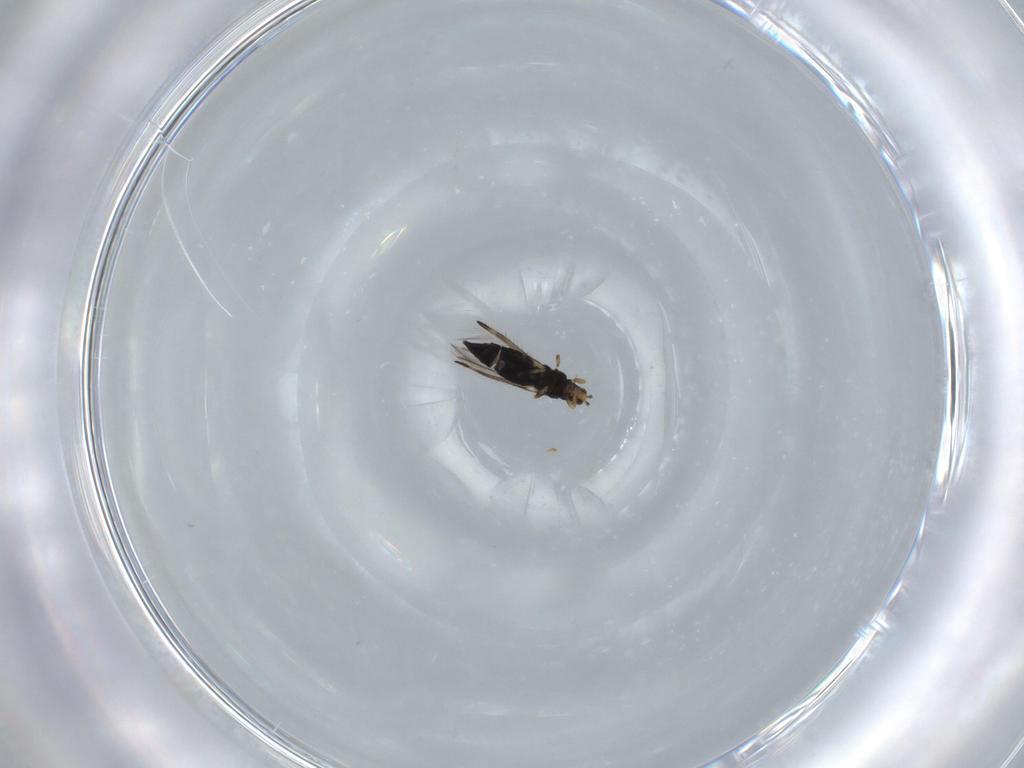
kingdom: Animalia
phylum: Arthropoda
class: Insecta
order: Thysanoptera
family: Thripidae
